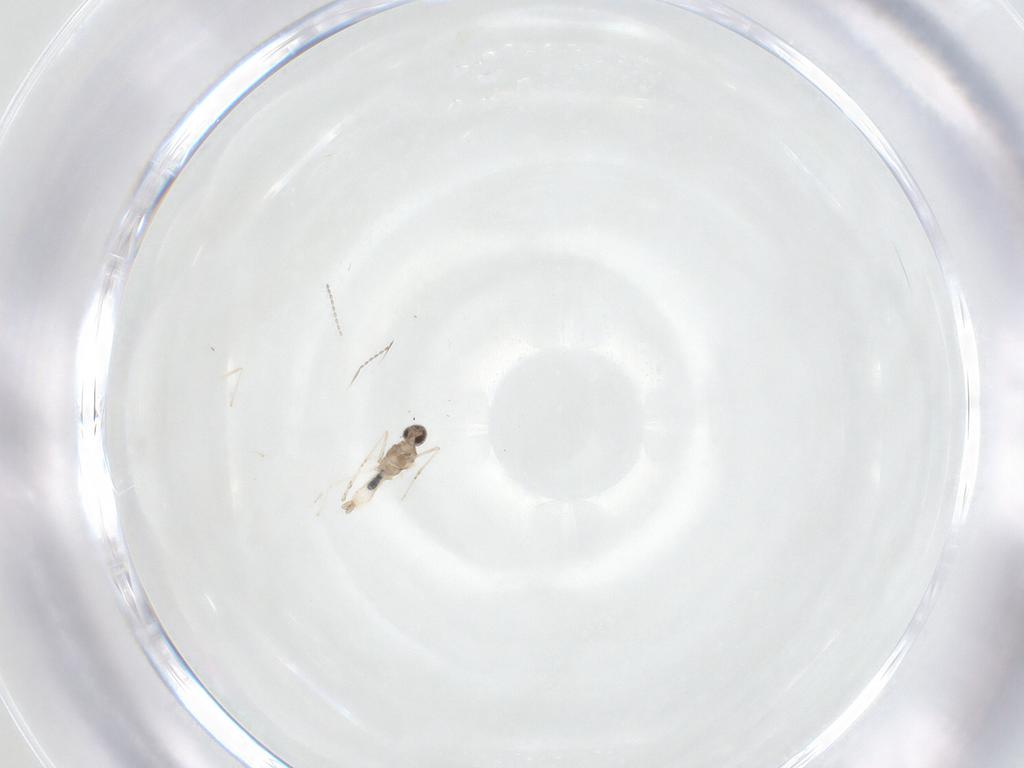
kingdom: Animalia
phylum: Arthropoda
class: Insecta
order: Diptera
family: Cecidomyiidae
